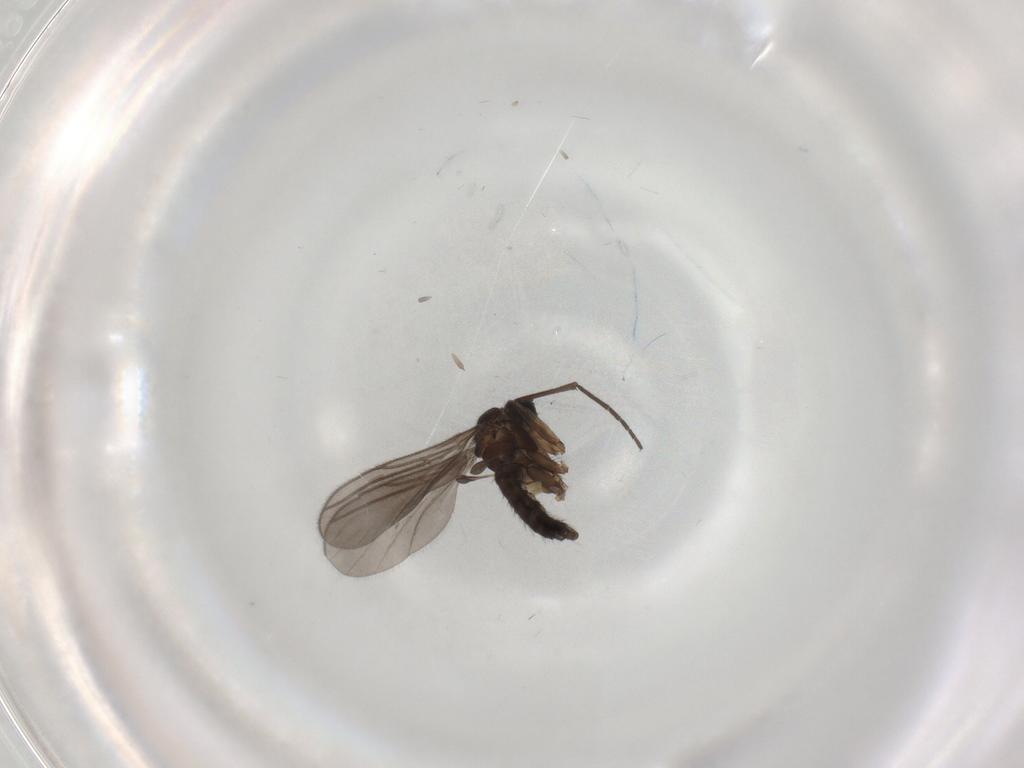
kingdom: Animalia
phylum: Arthropoda
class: Insecta
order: Diptera
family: Sciaridae
